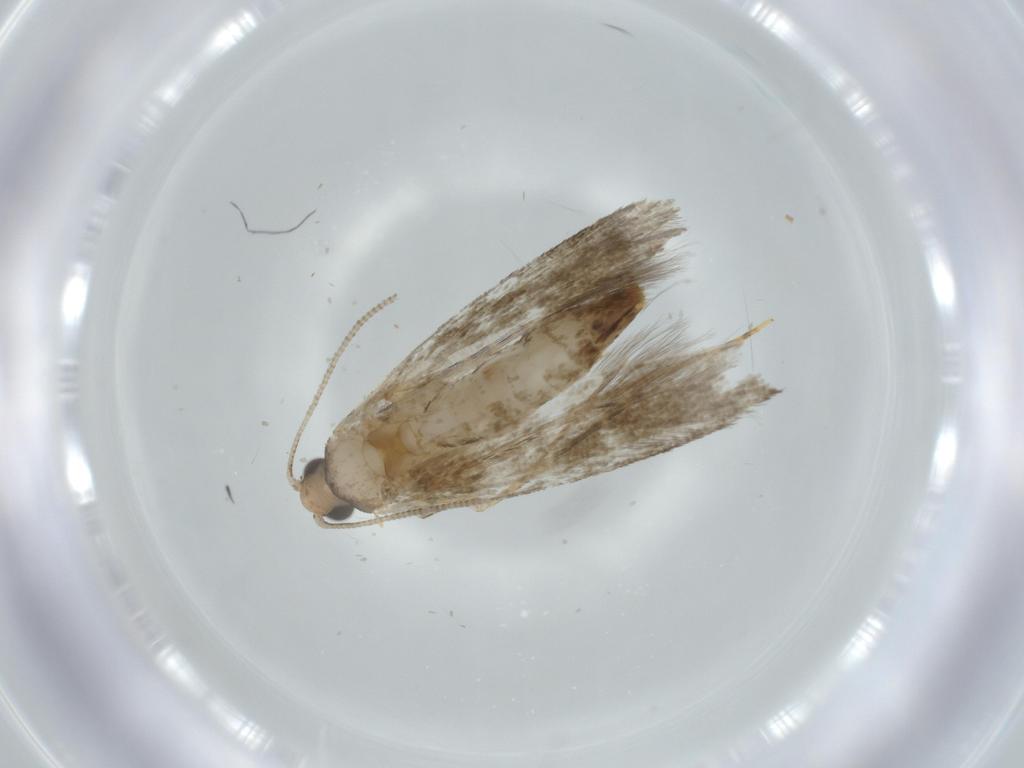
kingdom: Animalia
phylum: Arthropoda
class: Insecta
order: Lepidoptera
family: Meessiidae
